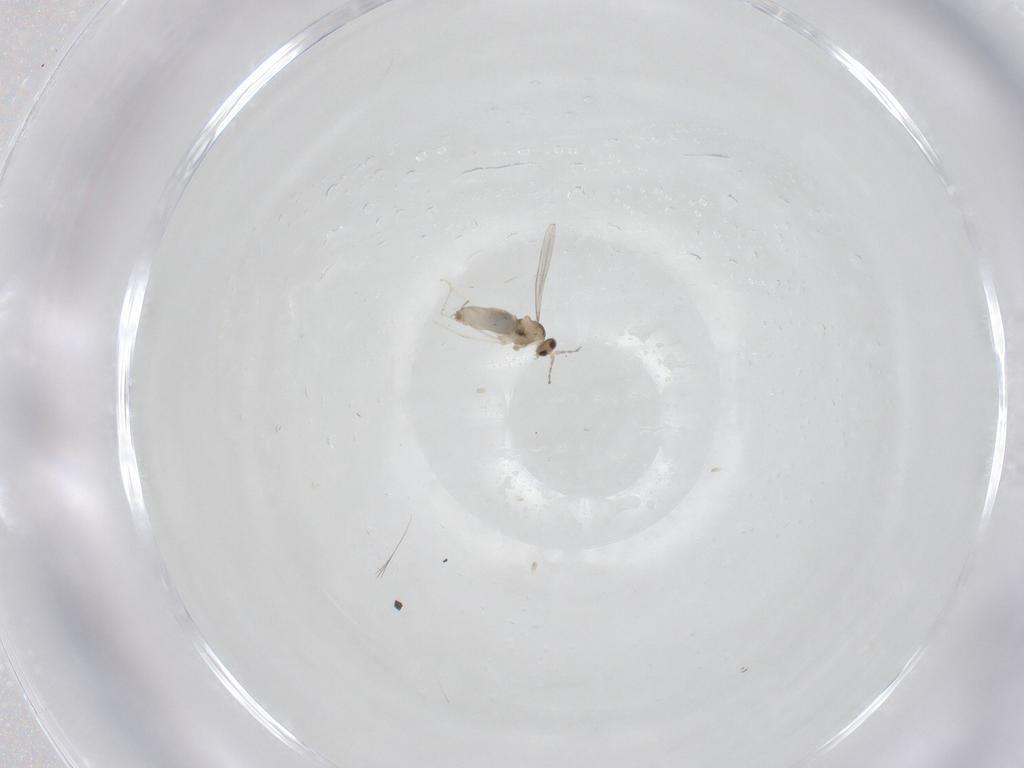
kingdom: Animalia
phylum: Arthropoda
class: Insecta
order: Diptera
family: Cecidomyiidae
